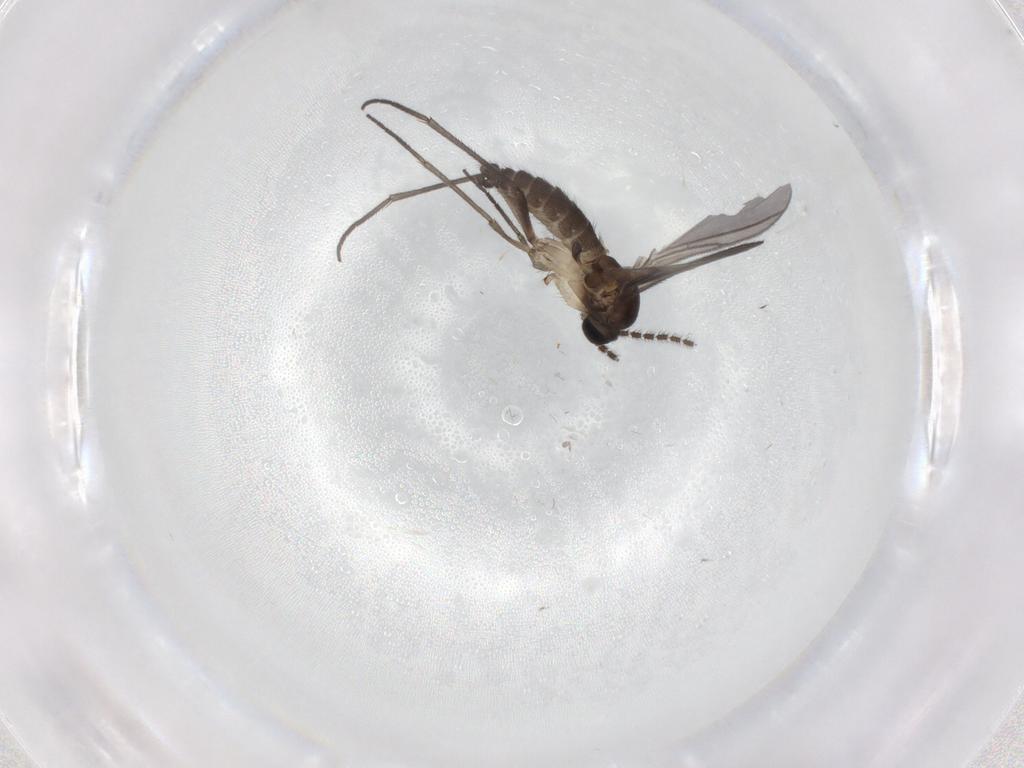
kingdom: Animalia
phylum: Arthropoda
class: Insecta
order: Diptera
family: Sciaridae
